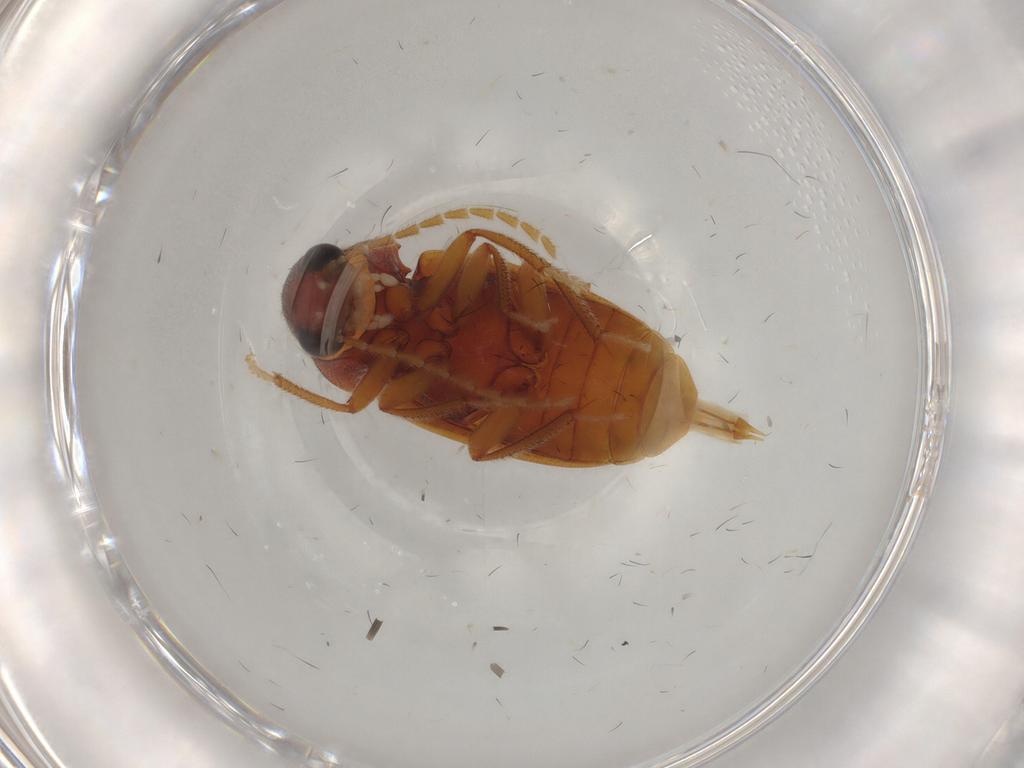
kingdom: Animalia
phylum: Arthropoda
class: Insecta
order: Coleoptera
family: Ptilodactylidae
